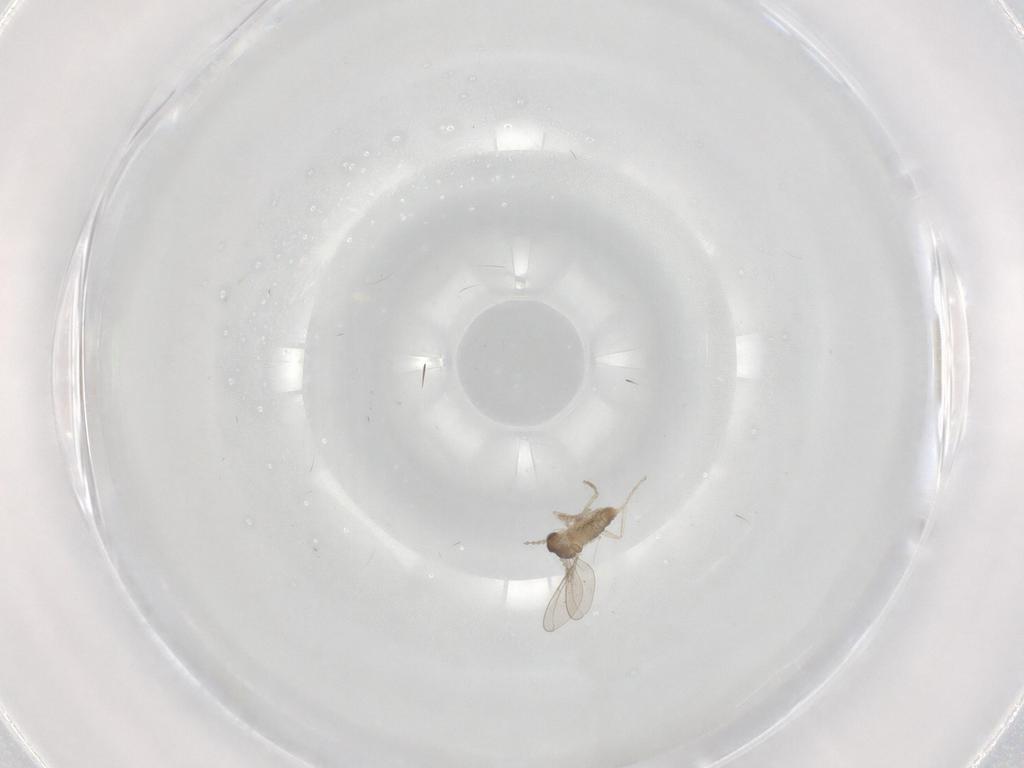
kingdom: Animalia
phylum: Arthropoda
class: Insecta
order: Diptera
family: Cecidomyiidae
